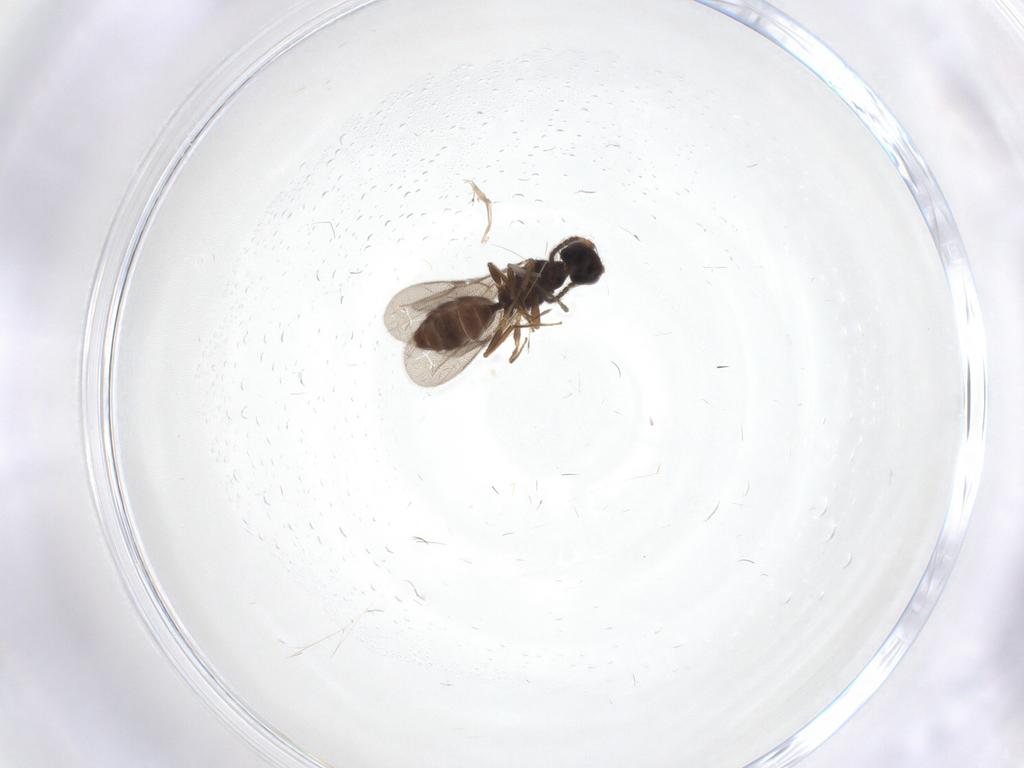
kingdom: Animalia
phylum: Arthropoda
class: Insecta
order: Hymenoptera
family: Bethylidae
